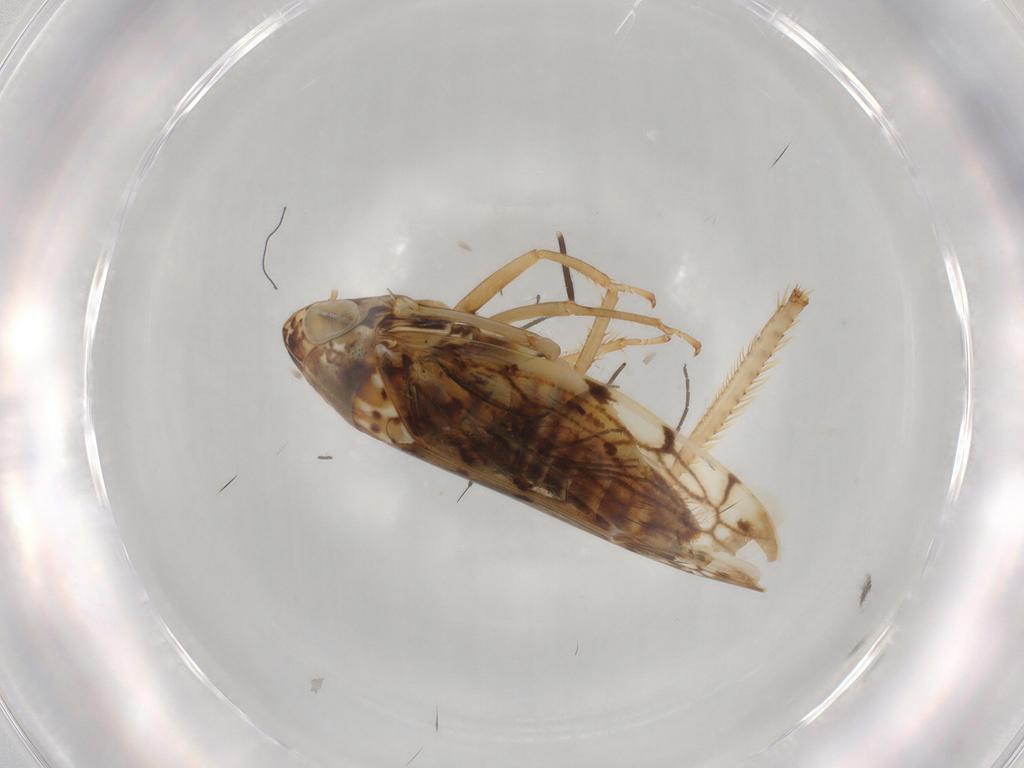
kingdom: Animalia
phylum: Arthropoda
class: Insecta
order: Hemiptera
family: Cicadellidae
